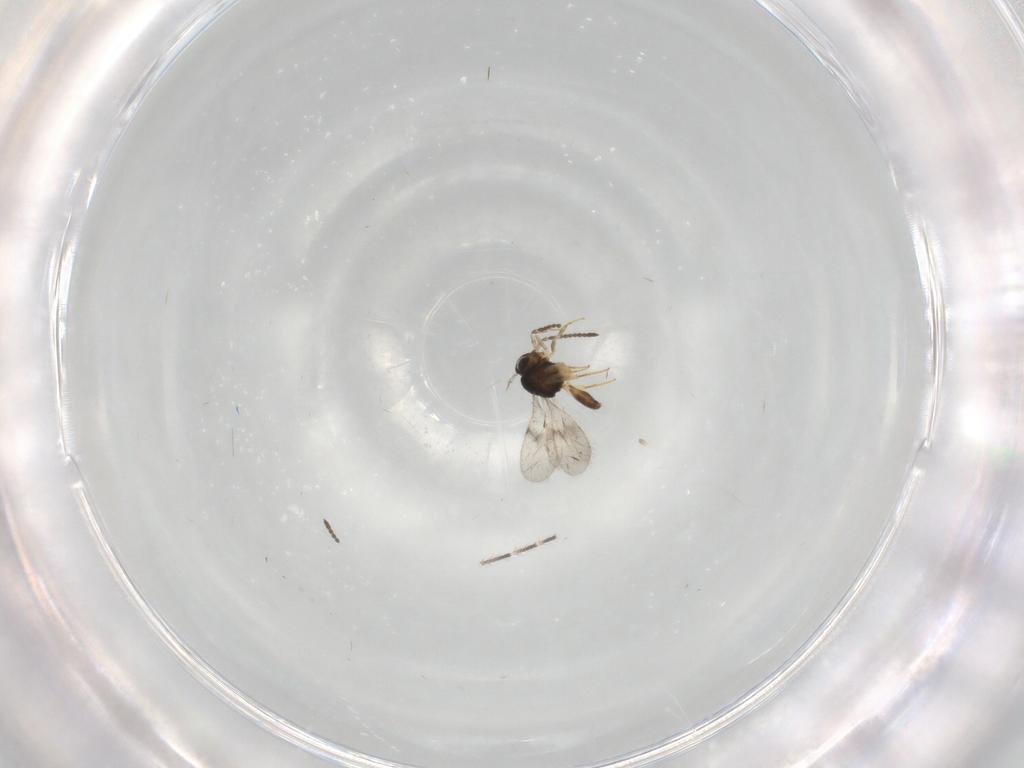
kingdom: Animalia
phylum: Arthropoda
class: Insecta
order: Hymenoptera
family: Scelionidae
